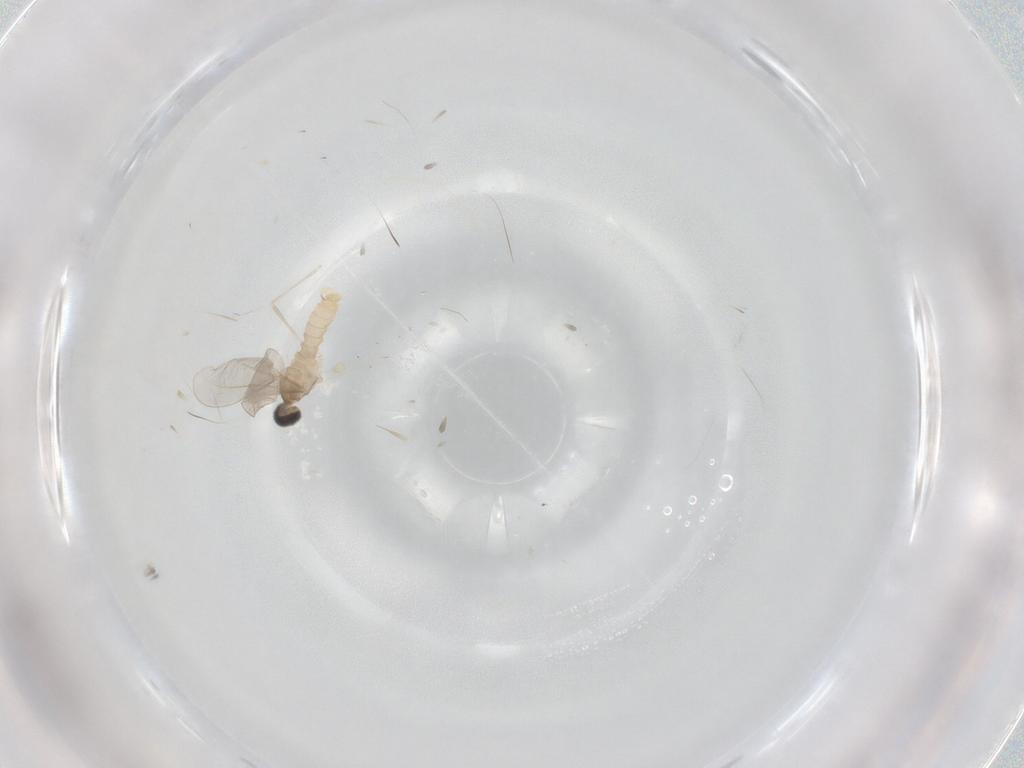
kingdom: Animalia
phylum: Arthropoda
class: Insecta
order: Diptera
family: Cecidomyiidae
